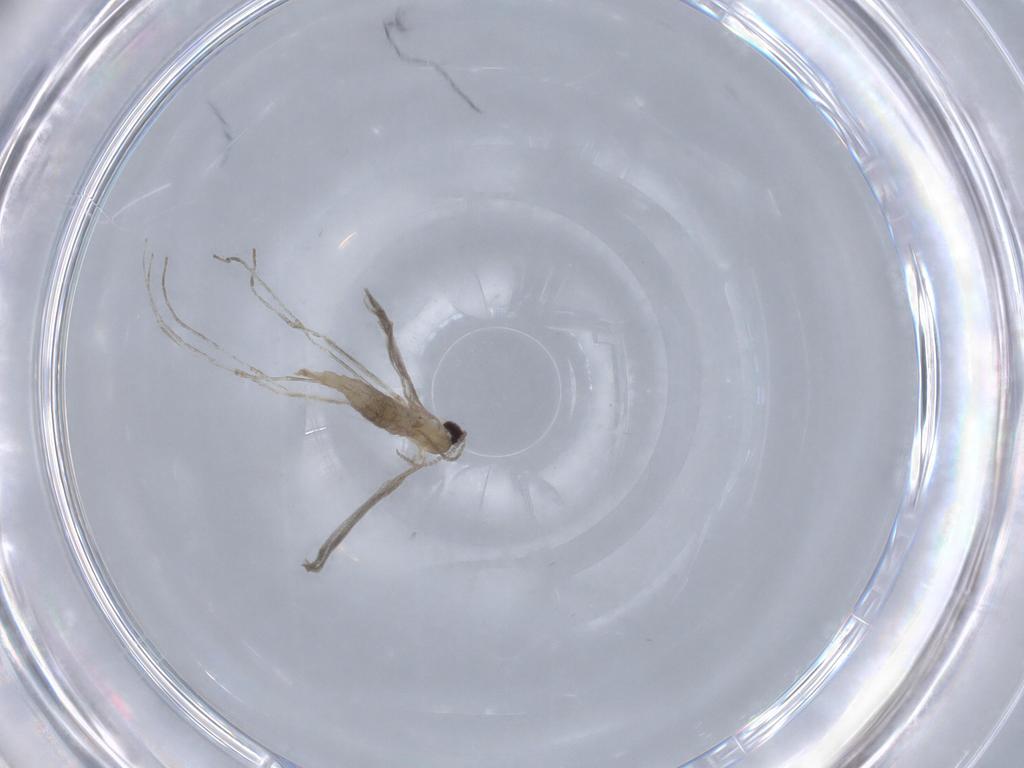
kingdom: Animalia
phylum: Arthropoda
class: Insecta
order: Diptera
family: Cecidomyiidae
